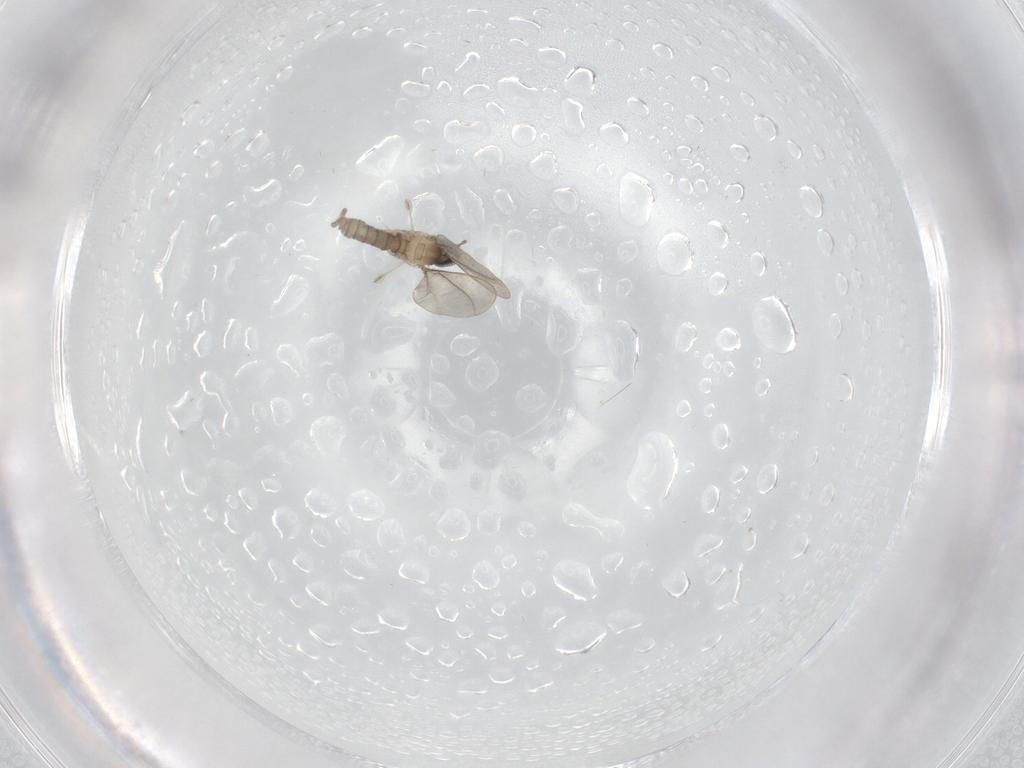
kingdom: Animalia
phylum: Arthropoda
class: Insecta
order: Diptera
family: Cecidomyiidae
